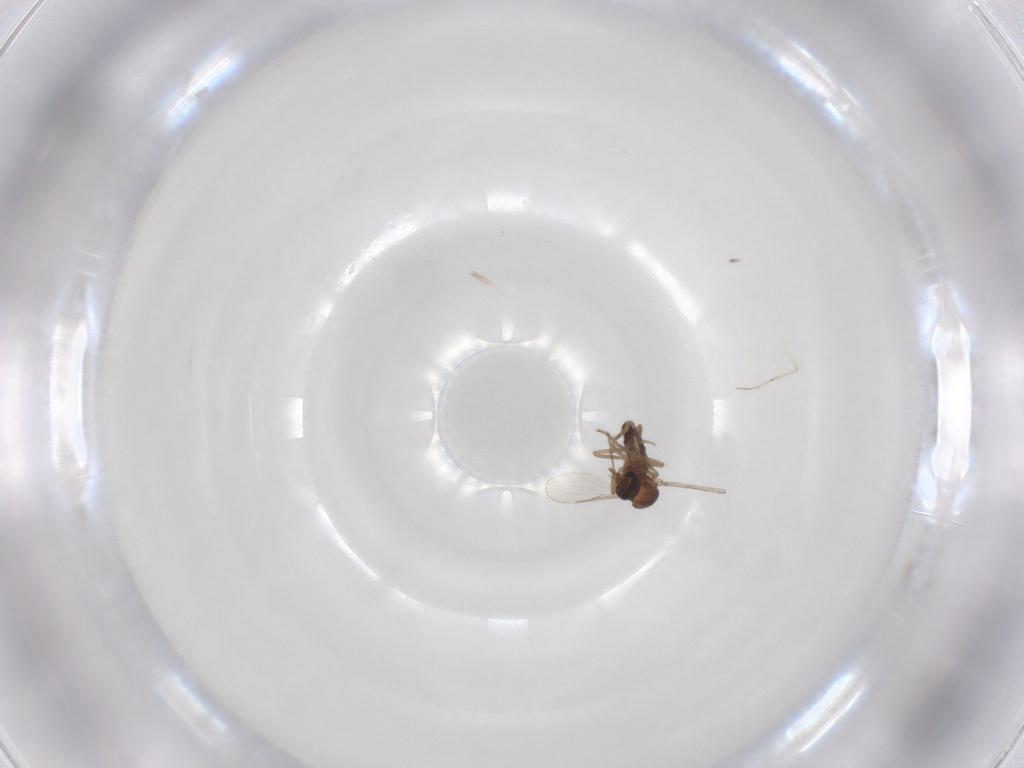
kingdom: Animalia
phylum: Arthropoda
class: Insecta
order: Diptera
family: Ceratopogonidae
